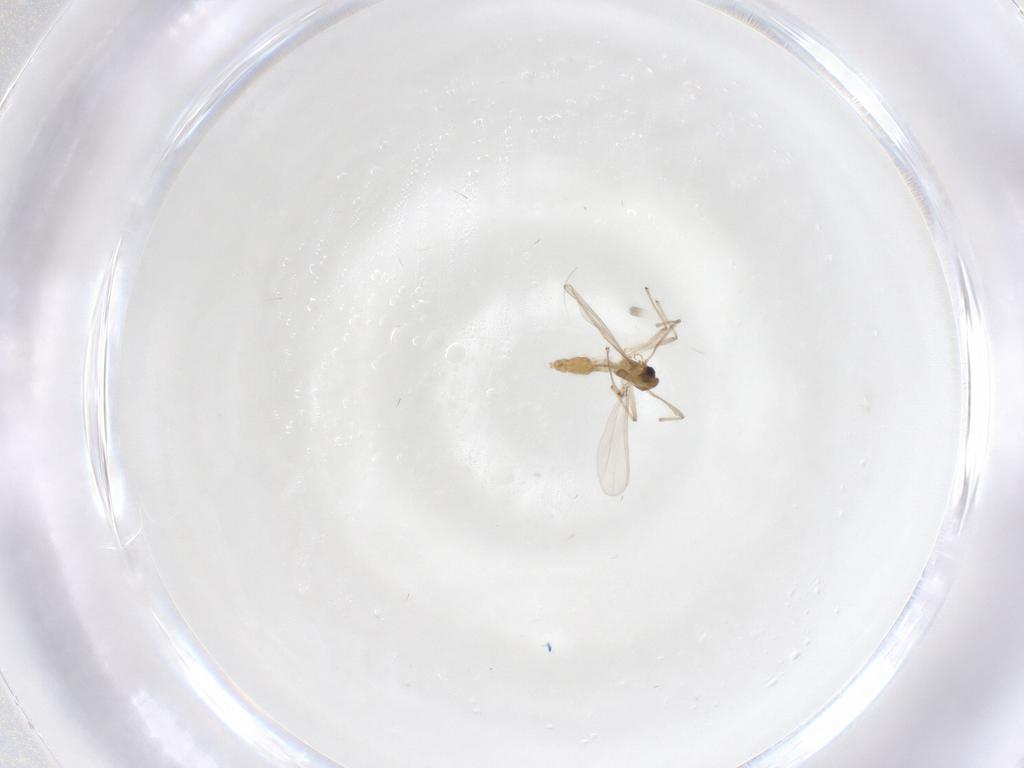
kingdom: Animalia
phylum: Arthropoda
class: Insecta
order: Diptera
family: Chironomidae
